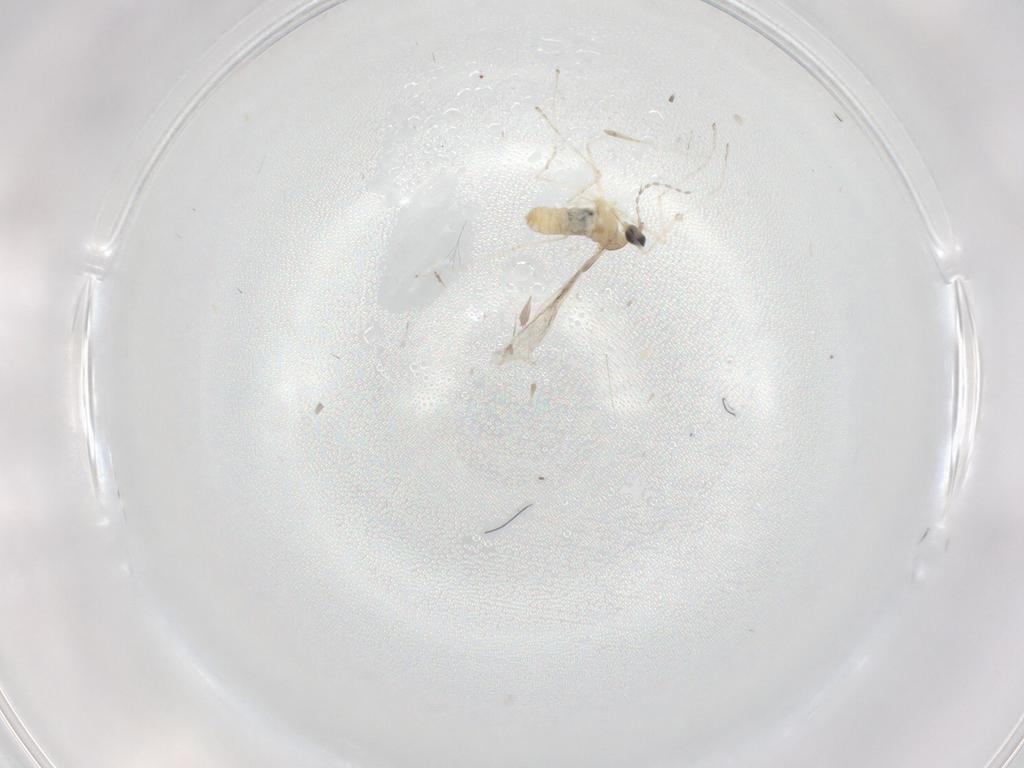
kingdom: Animalia
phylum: Arthropoda
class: Insecta
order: Diptera
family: Cecidomyiidae
